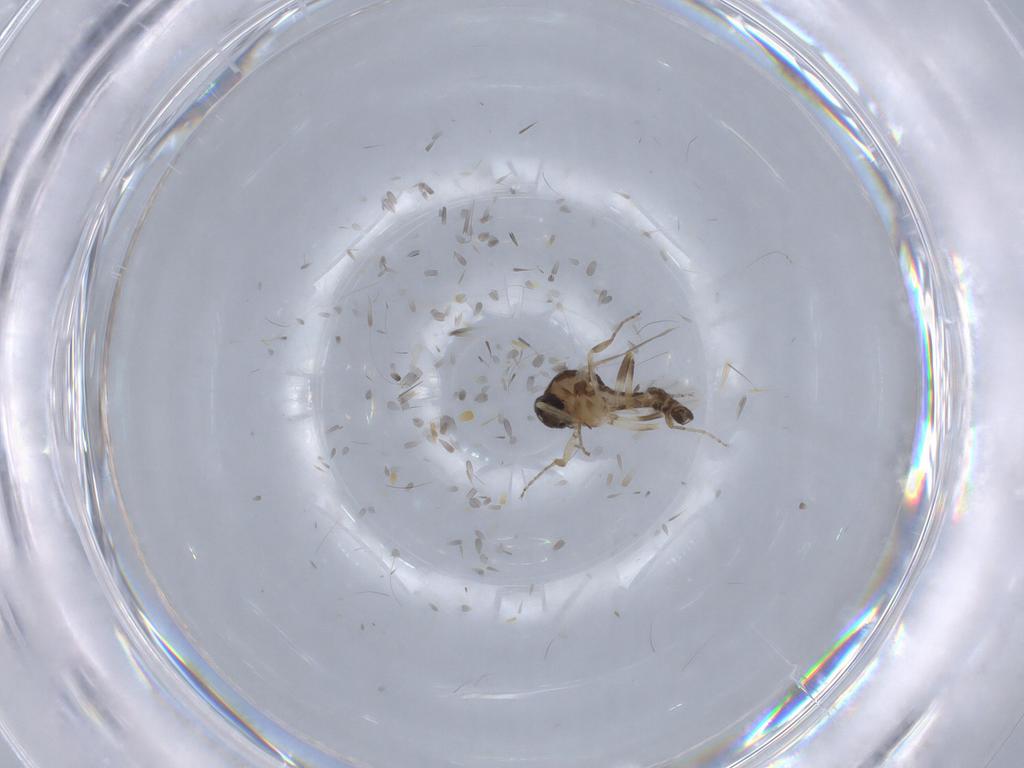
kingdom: Animalia
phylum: Arthropoda
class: Insecta
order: Diptera
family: Ceratopogonidae
